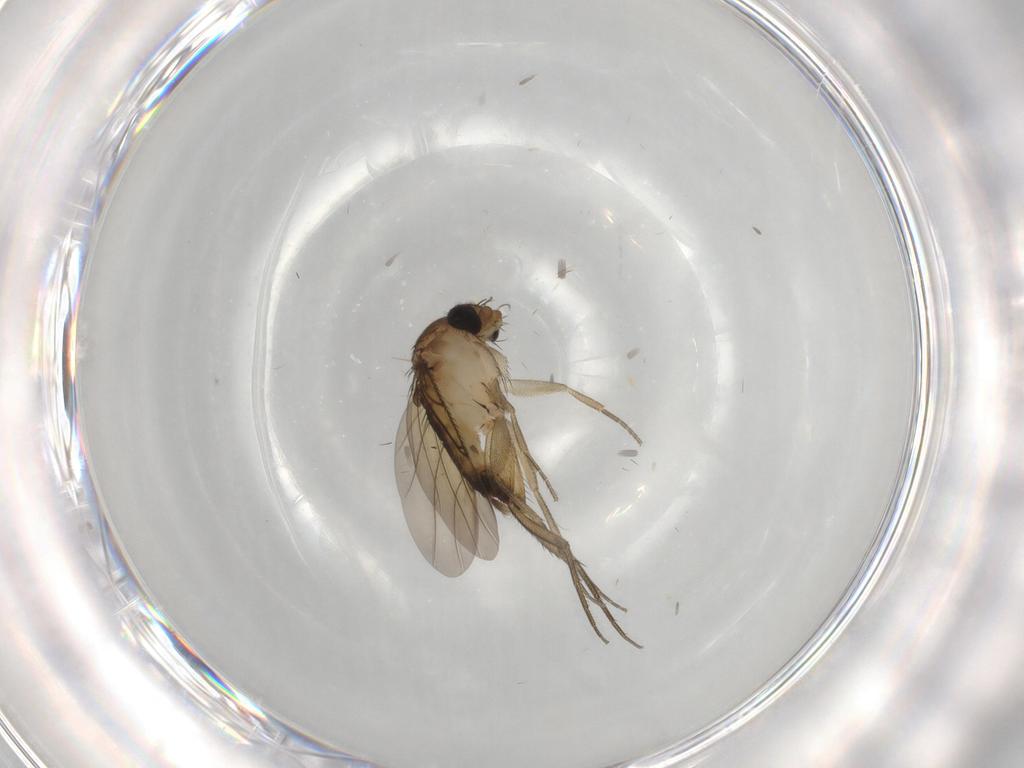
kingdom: Animalia
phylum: Arthropoda
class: Insecta
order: Diptera
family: Phoridae
